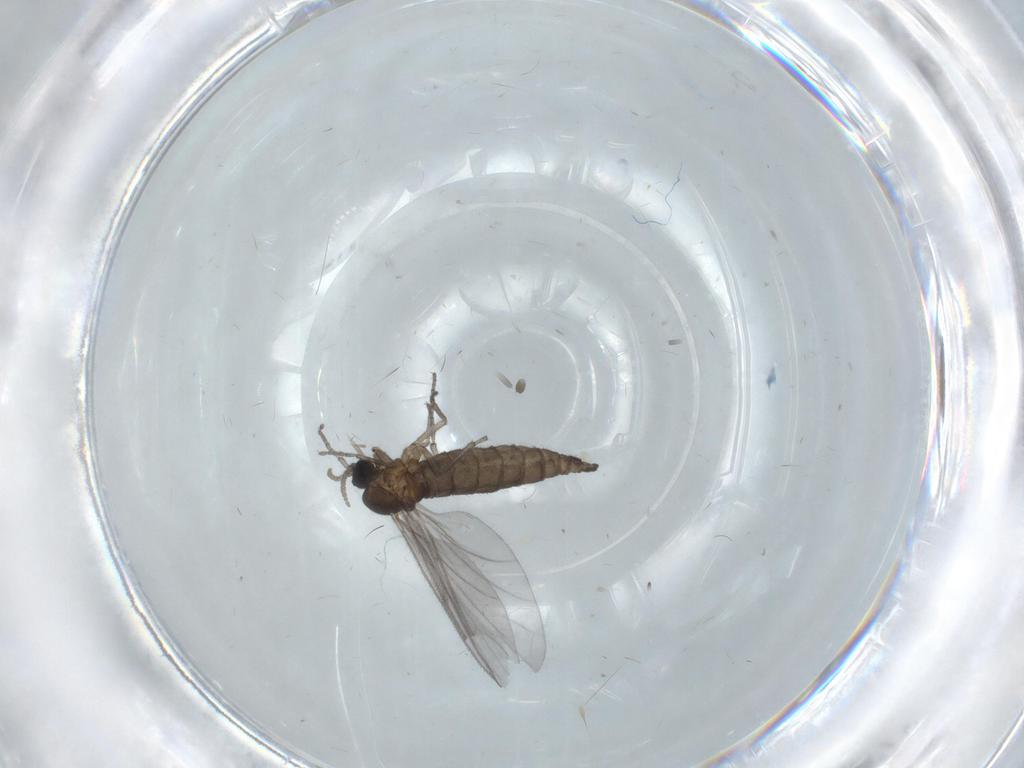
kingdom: Animalia
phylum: Arthropoda
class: Insecta
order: Diptera
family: Sciaridae
